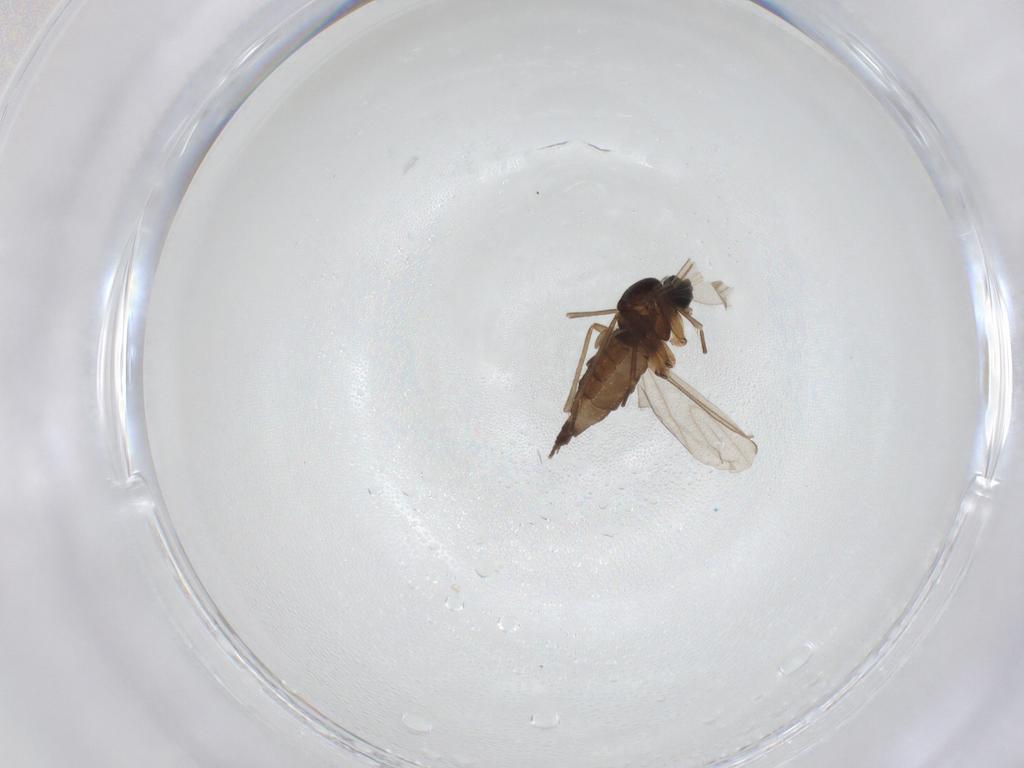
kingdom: Animalia
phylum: Arthropoda
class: Insecta
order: Diptera
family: Sciaridae
